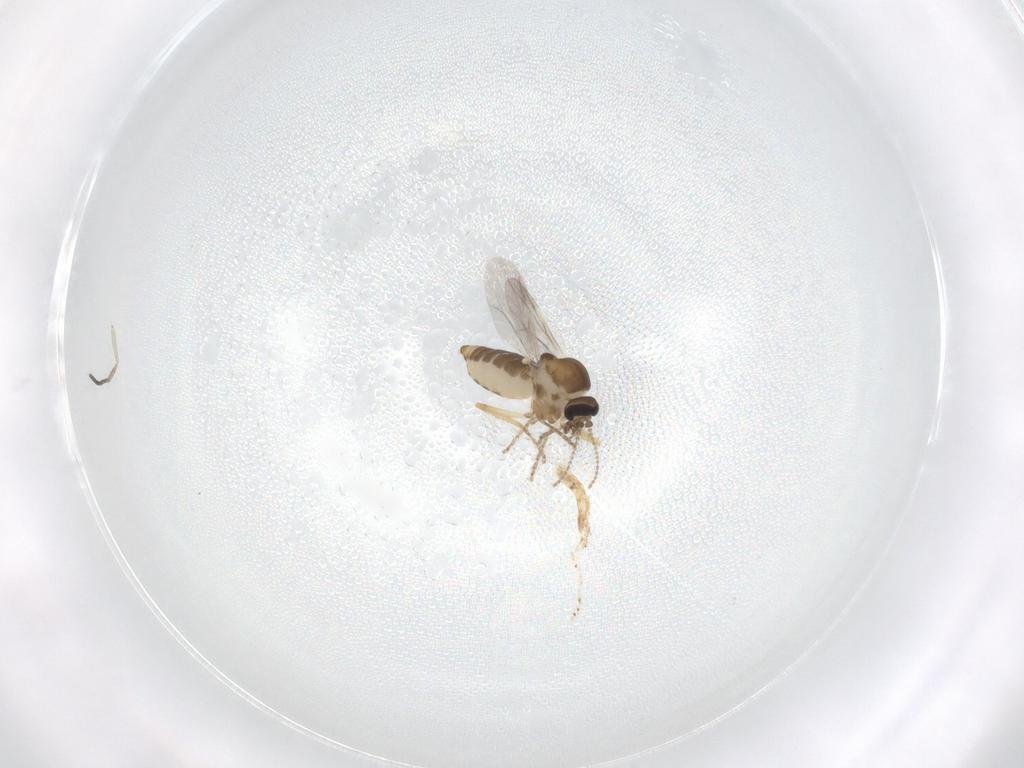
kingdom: Animalia
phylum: Arthropoda
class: Insecta
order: Diptera
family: Ceratopogonidae
